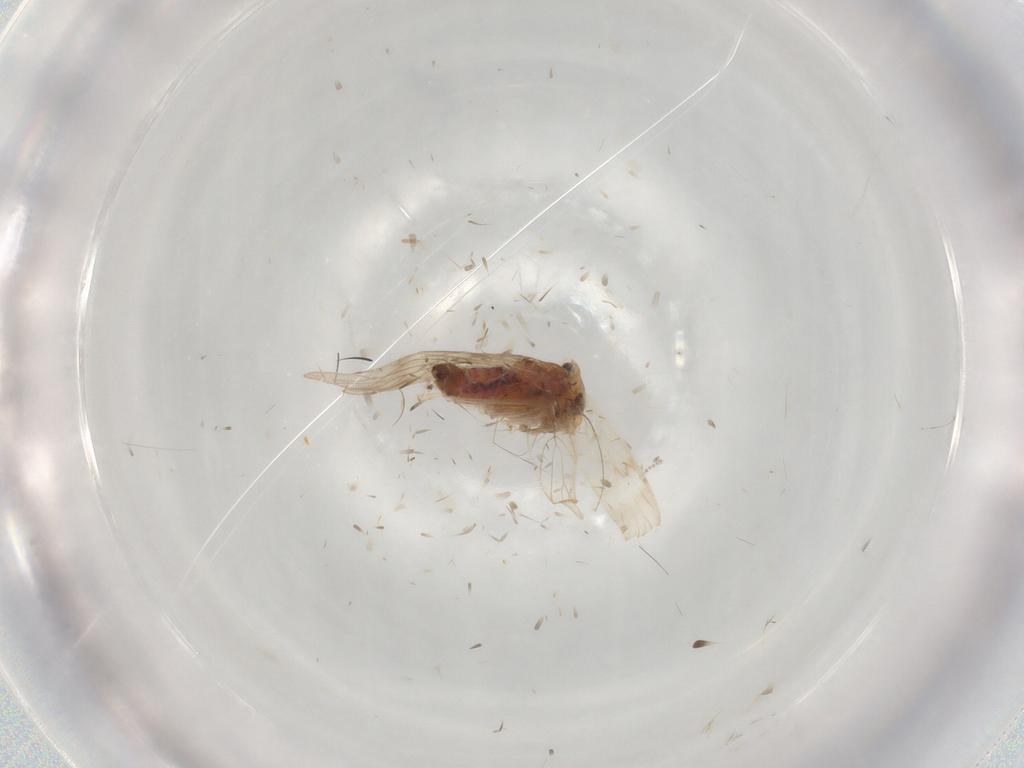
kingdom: Animalia
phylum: Arthropoda
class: Insecta
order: Psocodea
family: Lepidopsocidae
